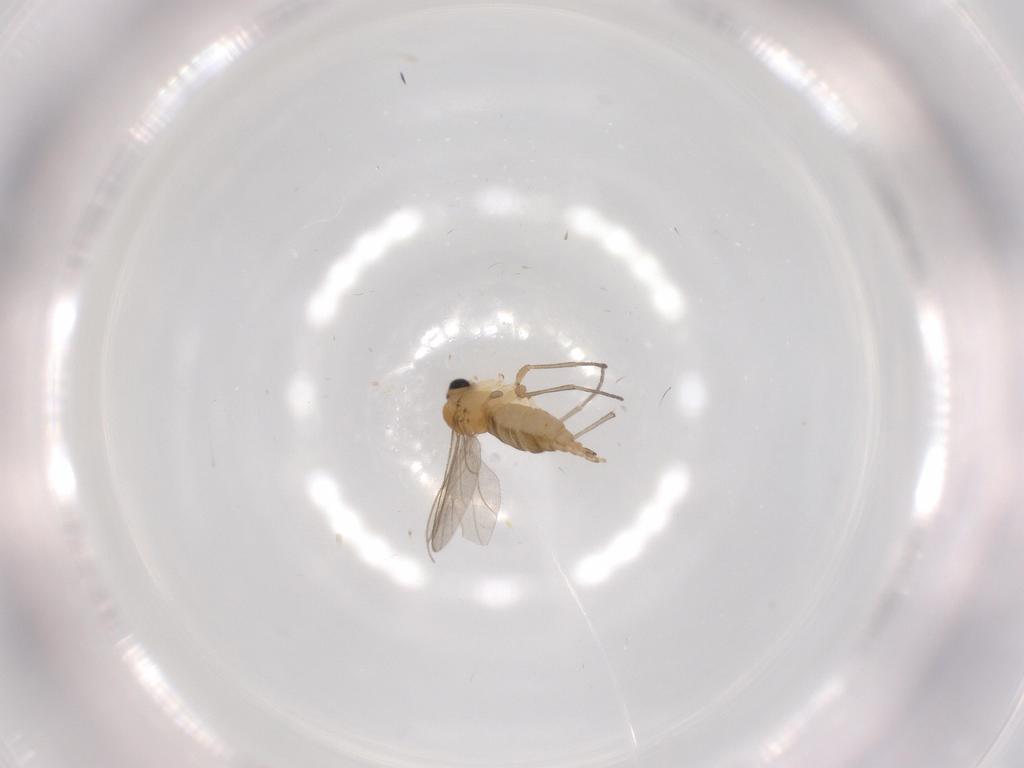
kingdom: Animalia
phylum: Arthropoda
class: Insecta
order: Diptera
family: Sciaridae
